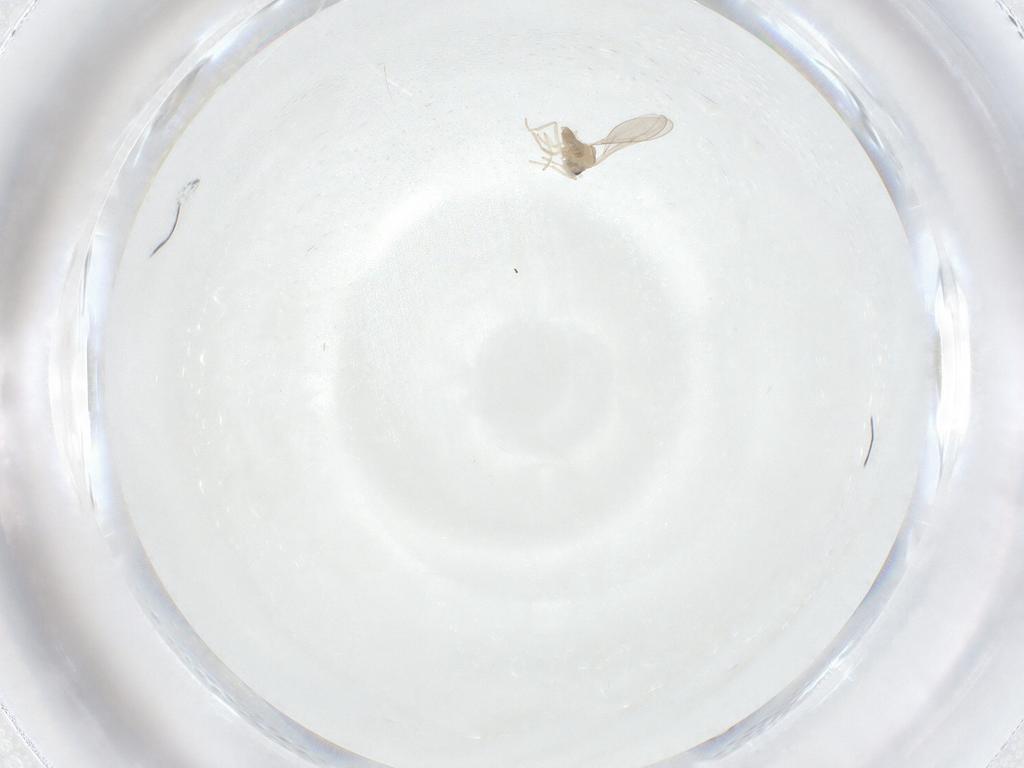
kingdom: Animalia
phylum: Arthropoda
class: Insecta
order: Diptera
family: Cecidomyiidae
